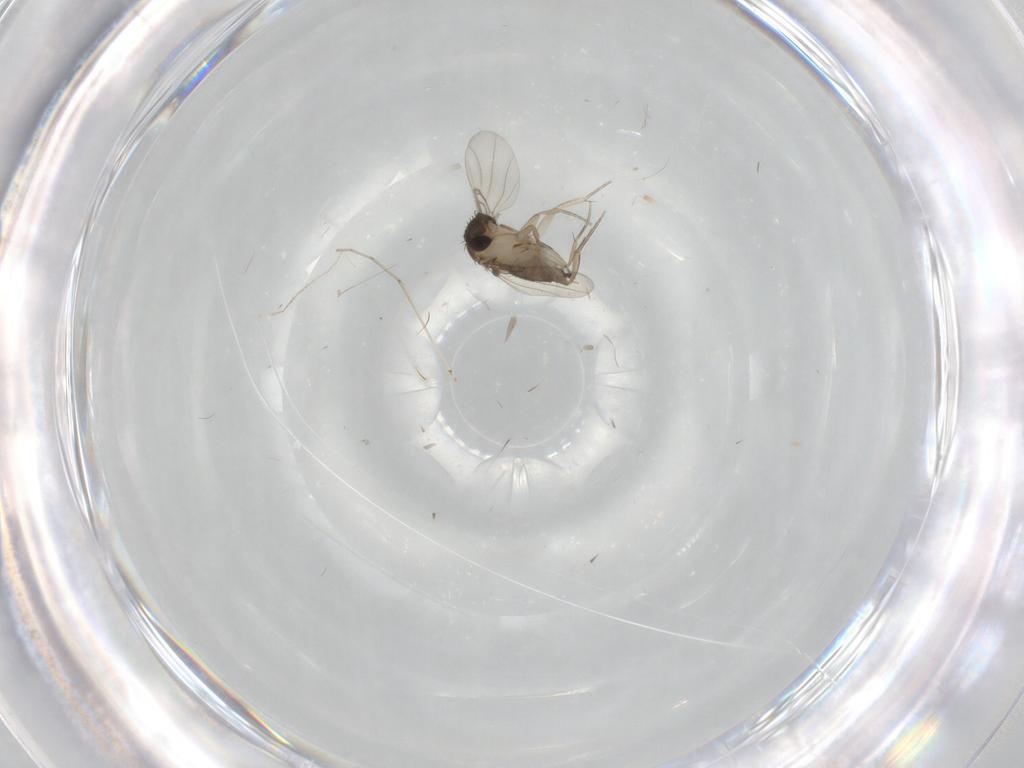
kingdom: Animalia
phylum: Arthropoda
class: Insecta
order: Diptera
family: Phoridae
